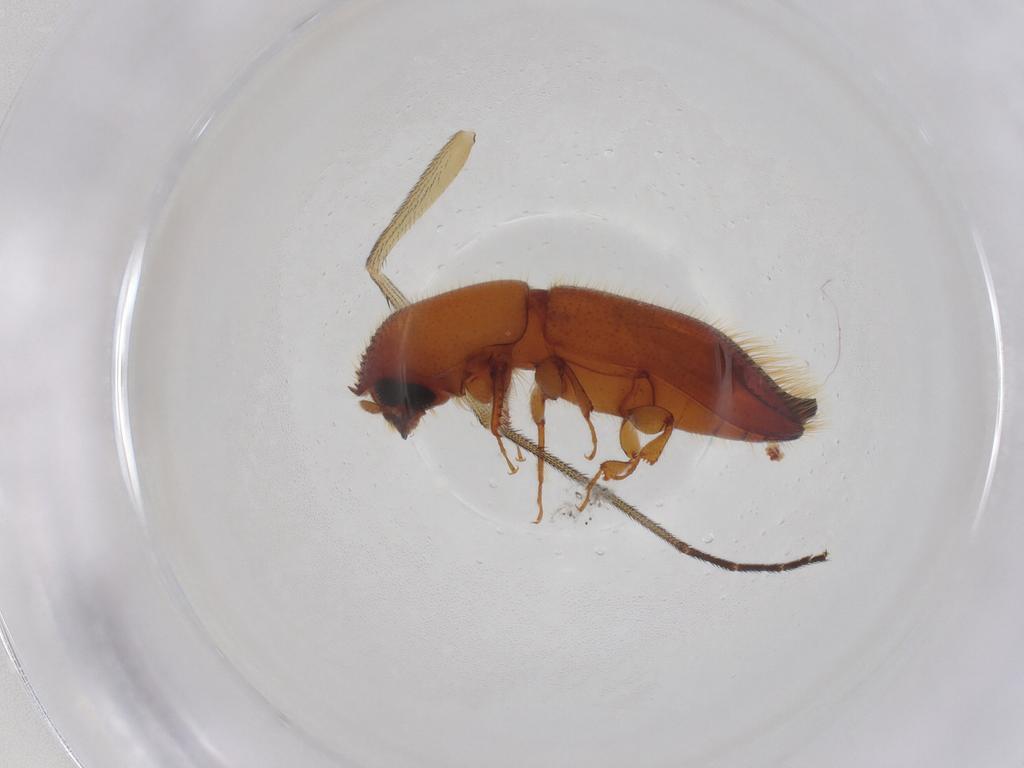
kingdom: Animalia
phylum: Arthropoda
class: Insecta
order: Coleoptera
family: Curculionidae
